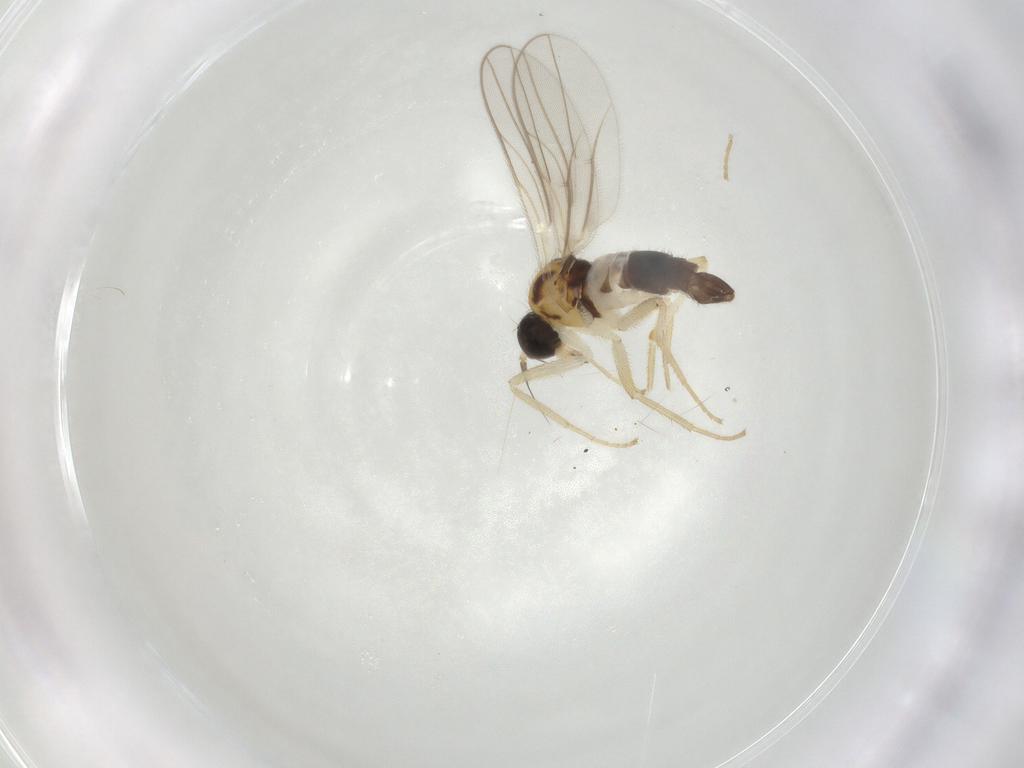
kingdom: Animalia
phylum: Arthropoda
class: Insecta
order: Diptera
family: Hybotidae
